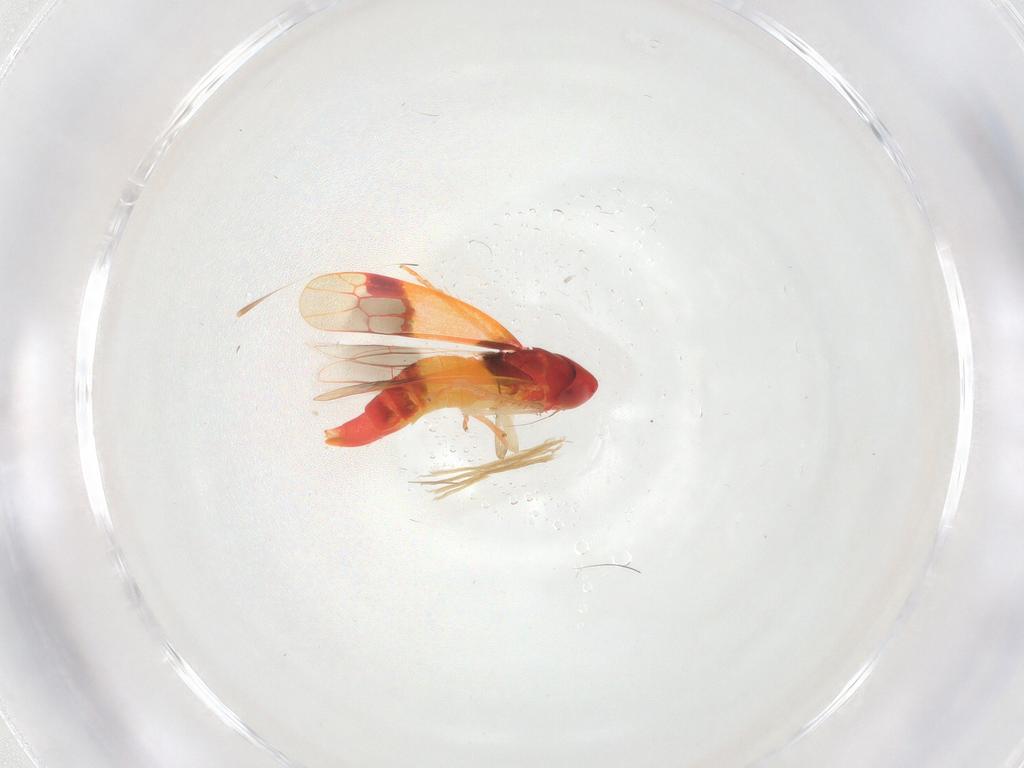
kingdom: Animalia
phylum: Arthropoda
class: Insecta
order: Hemiptera
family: Cicadellidae
